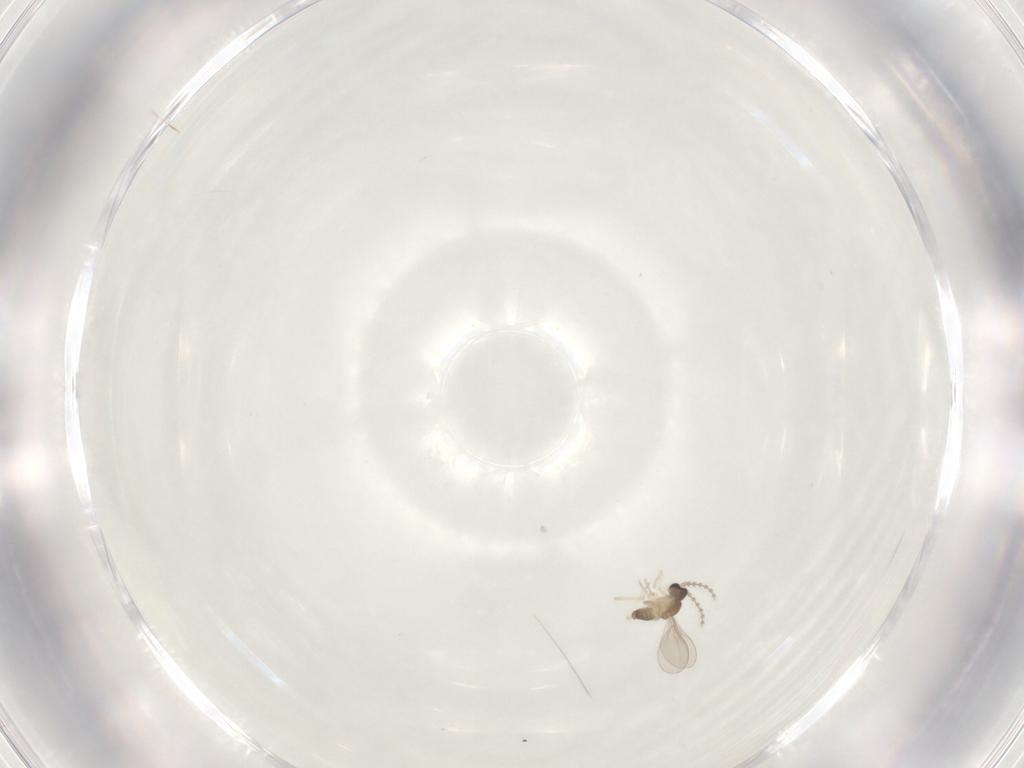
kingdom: Animalia
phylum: Arthropoda
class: Insecta
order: Diptera
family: Cecidomyiidae
